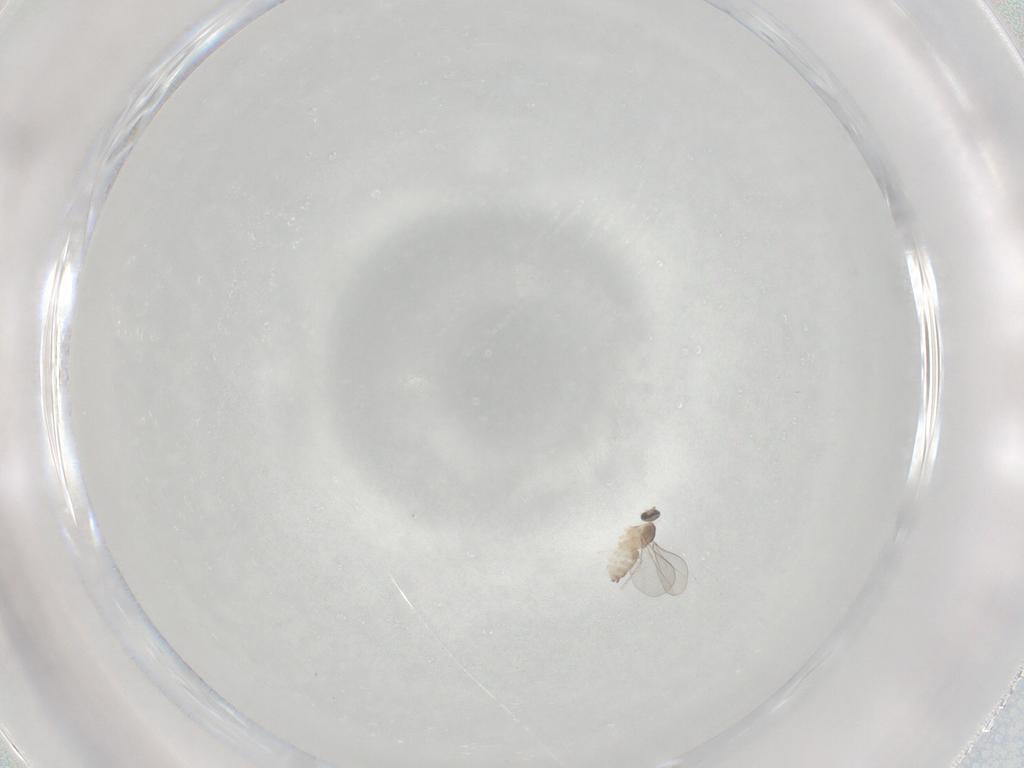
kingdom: Animalia
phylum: Arthropoda
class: Insecta
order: Diptera
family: Cecidomyiidae
